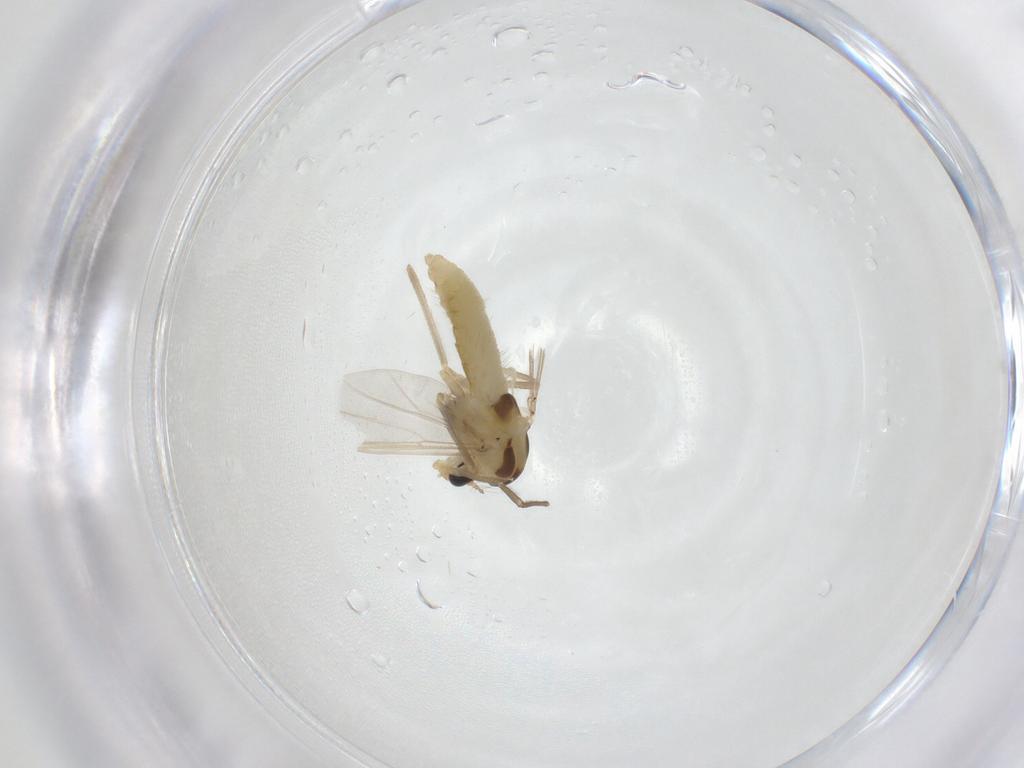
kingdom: Animalia
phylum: Arthropoda
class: Insecta
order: Diptera
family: Chironomidae
